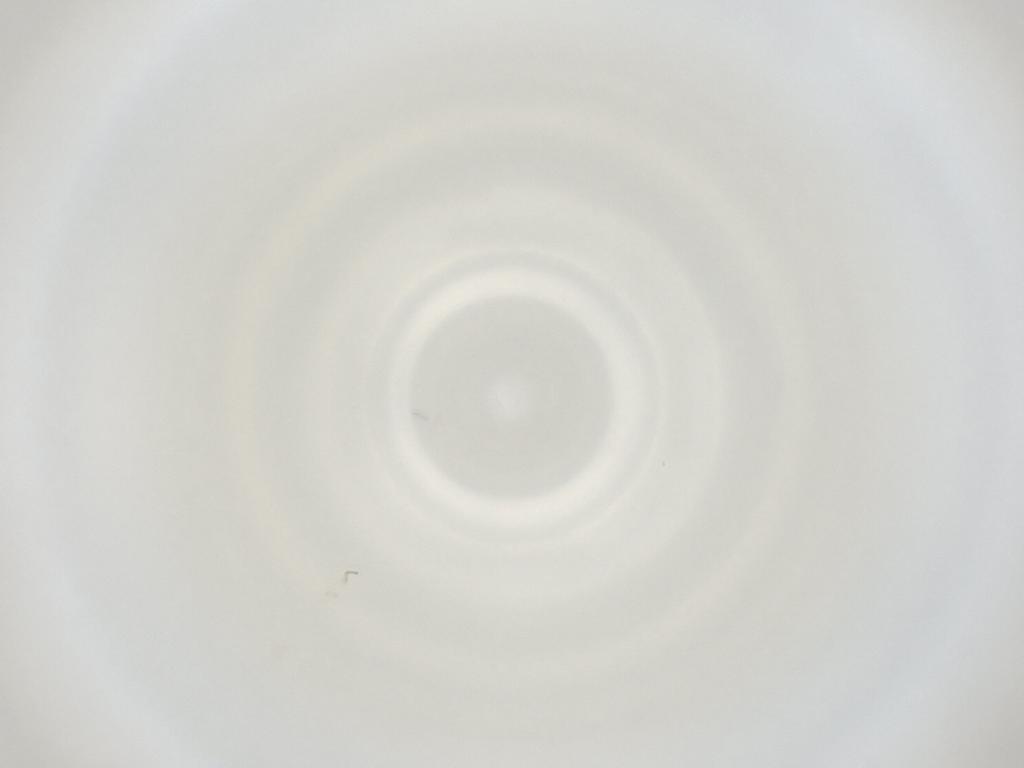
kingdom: Animalia
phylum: Arthropoda
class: Insecta
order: Diptera
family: Cecidomyiidae
